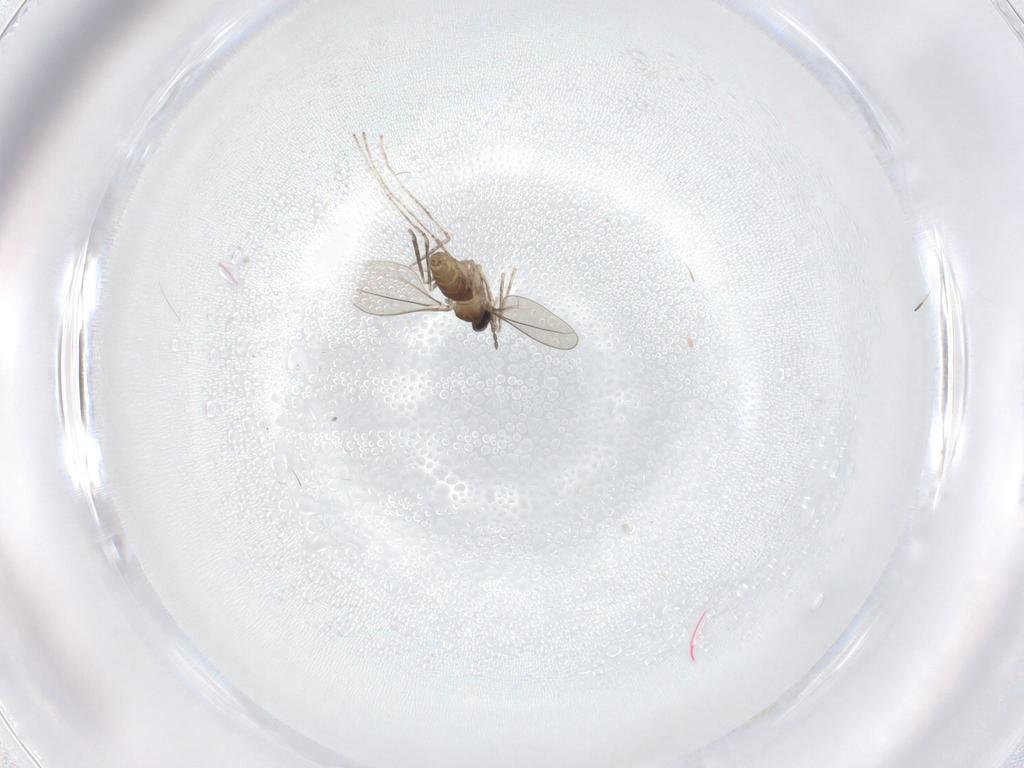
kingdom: Animalia
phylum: Arthropoda
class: Insecta
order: Diptera
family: Cecidomyiidae
